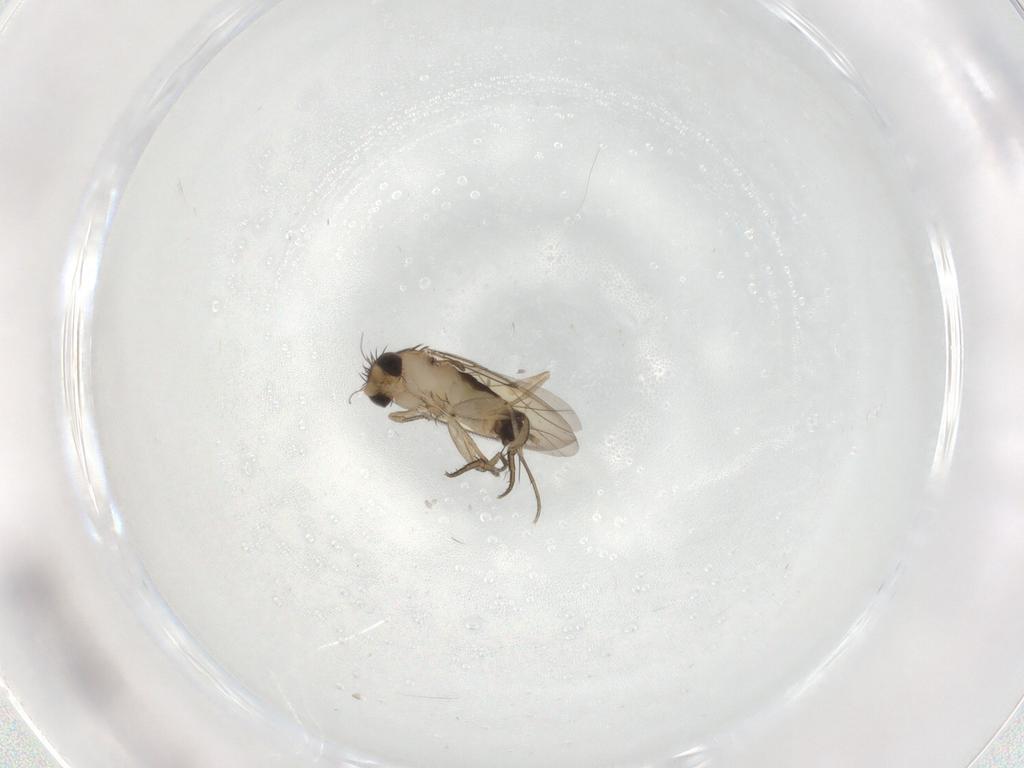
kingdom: Animalia
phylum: Arthropoda
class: Insecta
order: Diptera
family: Phoridae
